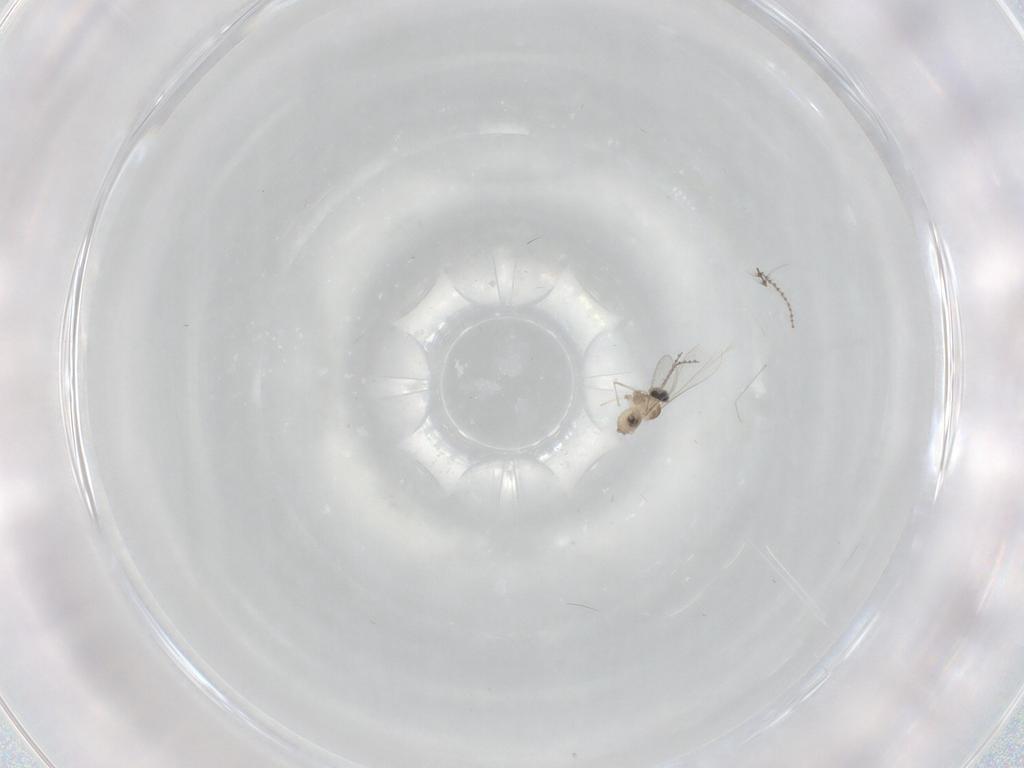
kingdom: Animalia
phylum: Arthropoda
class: Insecta
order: Diptera
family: Cecidomyiidae
